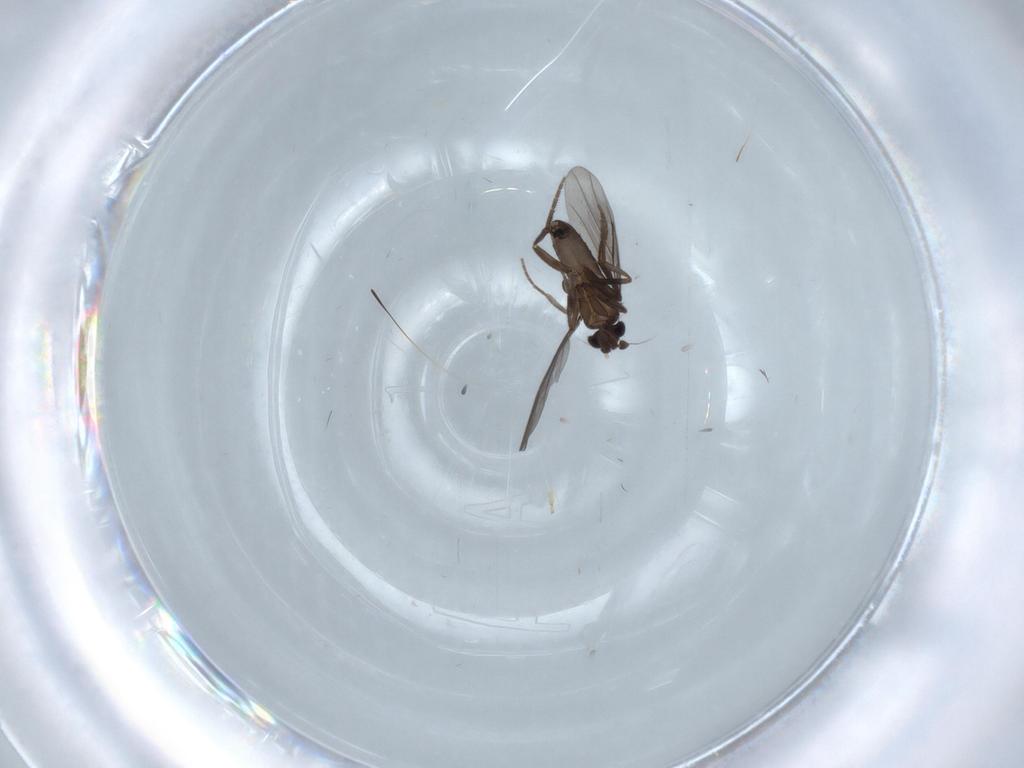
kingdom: Animalia
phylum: Arthropoda
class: Insecta
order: Diptera
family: Phoridae
